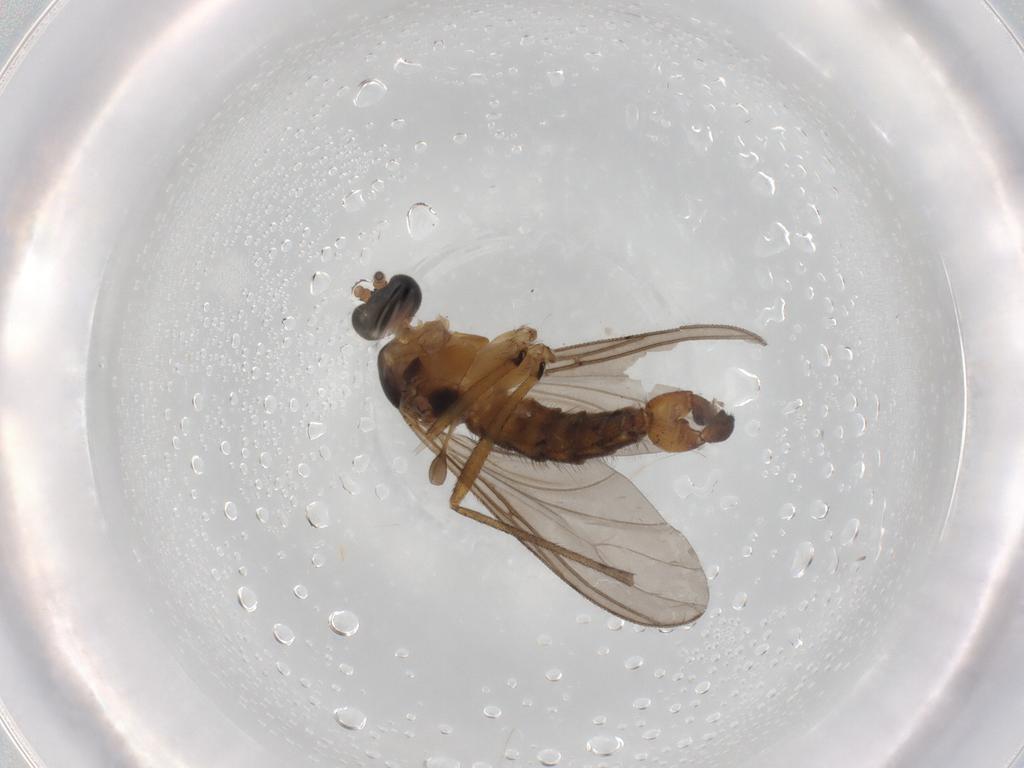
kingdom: Animalia
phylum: Arthropoda
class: Insecta
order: Diptera
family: Sciaridae
